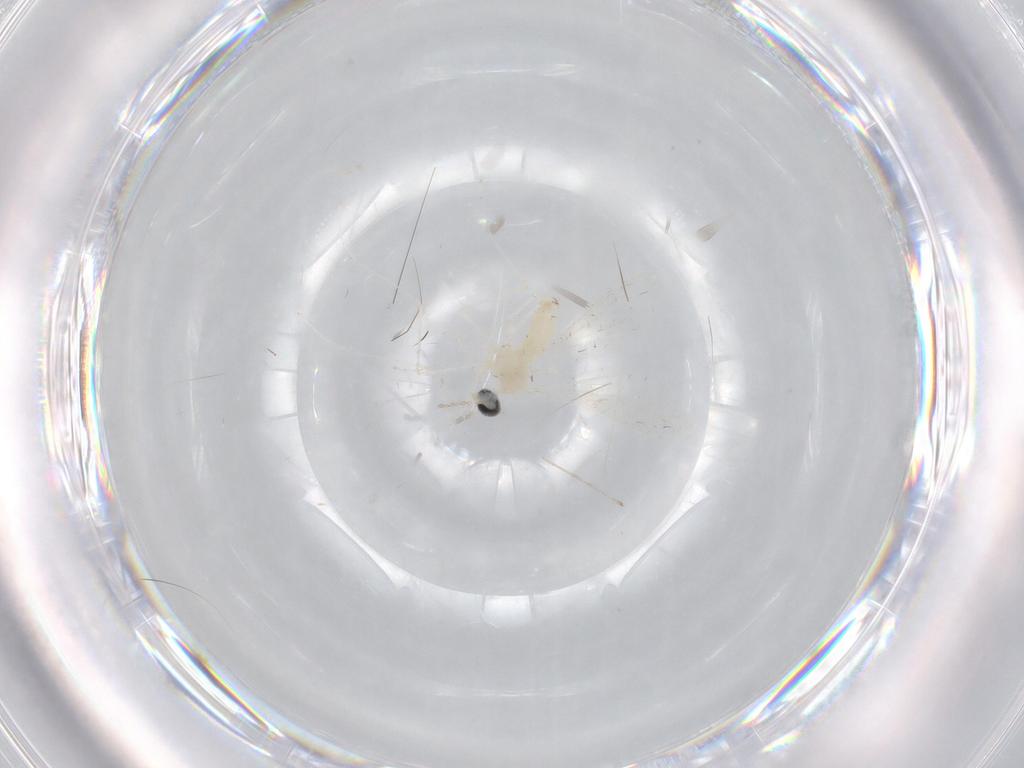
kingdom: Animalia
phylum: Arthropoda
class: Insecta
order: Diptera
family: Cecidomyiidae
